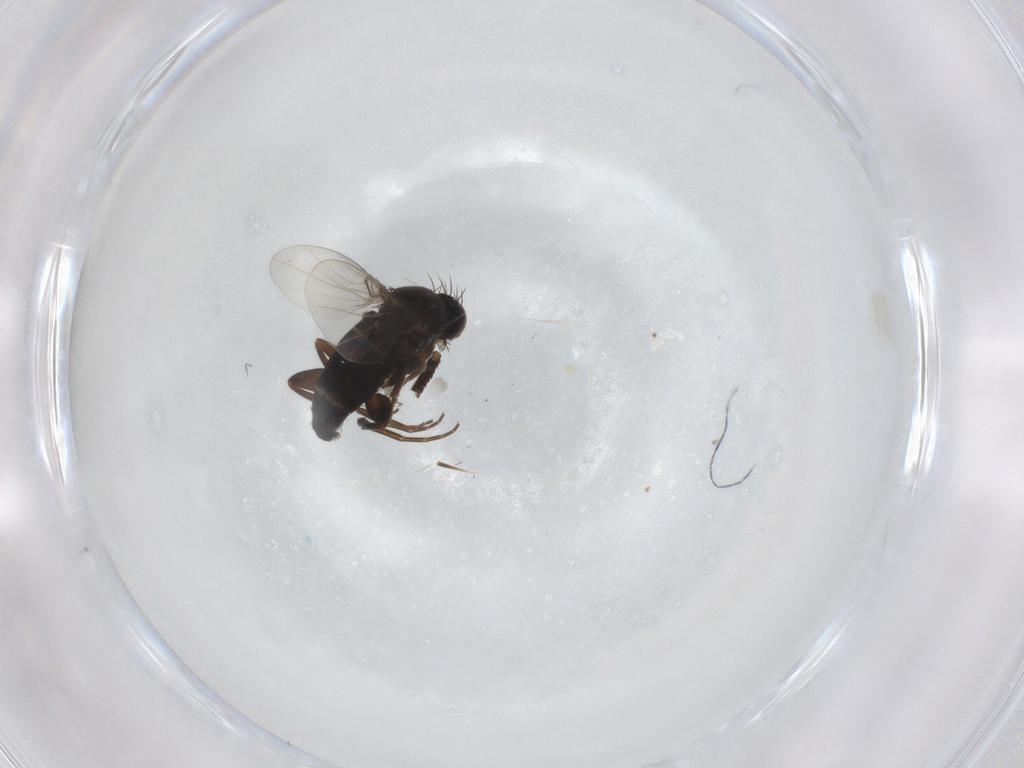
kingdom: Animalia
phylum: Arthropoda
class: Insecta
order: Diptera
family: Phoridae
